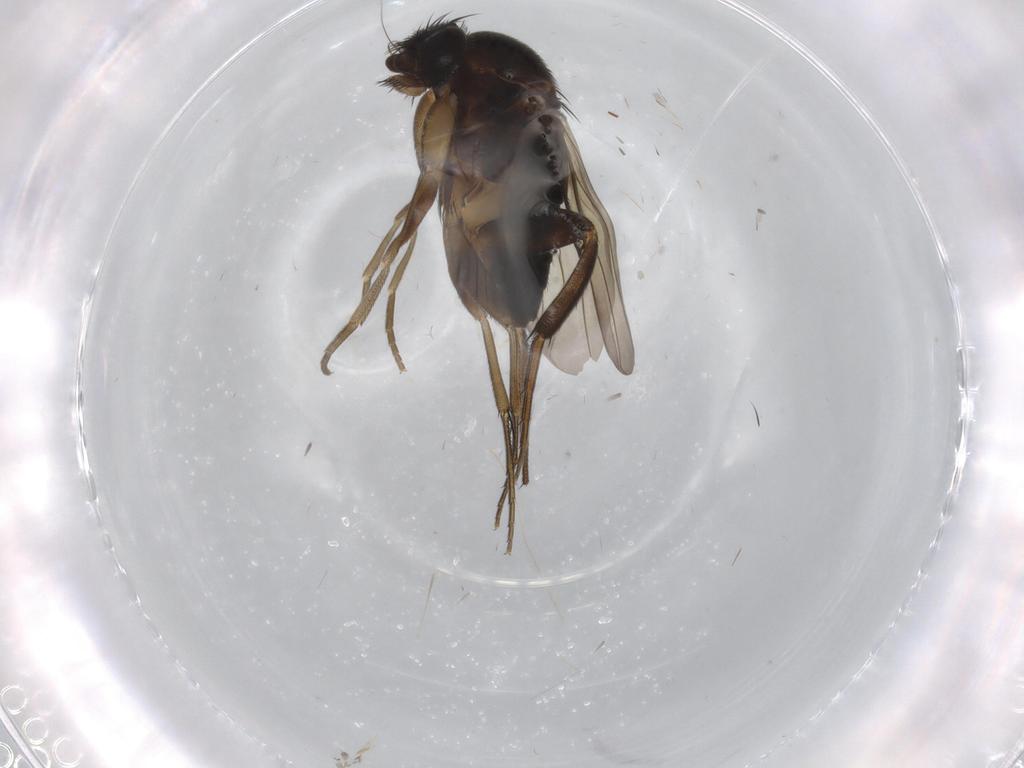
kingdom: Animalia
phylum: Arthropoda
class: Insecta
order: Diptera
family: Phoridae
